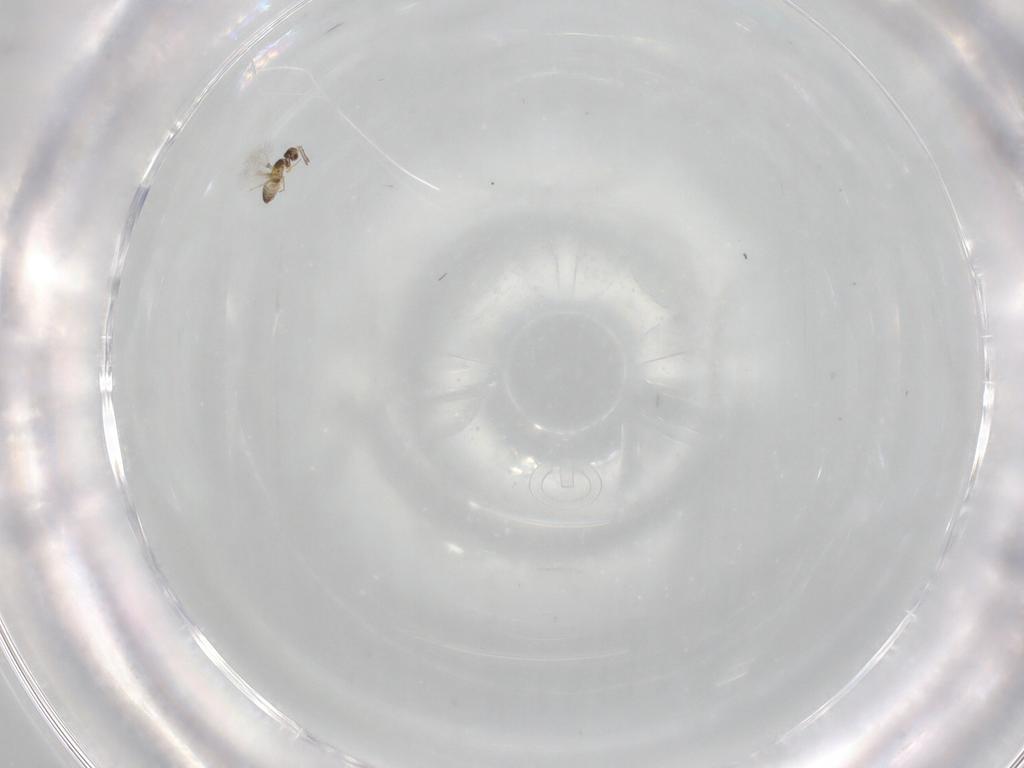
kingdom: Animalia
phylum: Arthropoda
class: Insecta
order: Hymenoptera
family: Mymaridae
